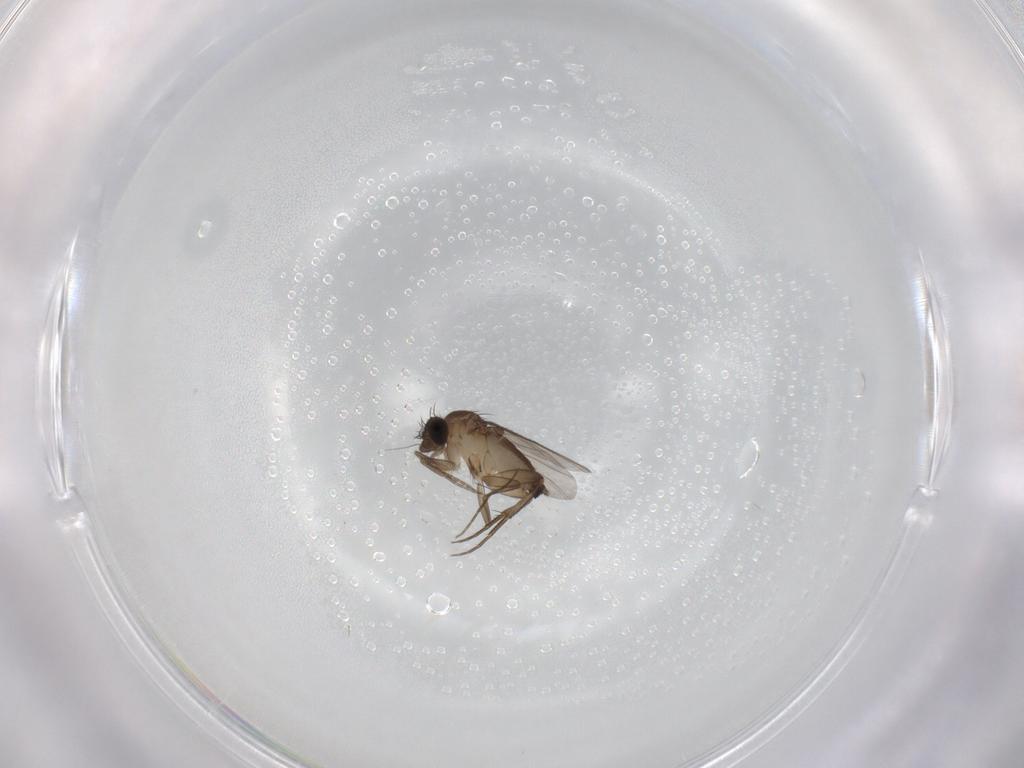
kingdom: Animalia
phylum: Arthropoda
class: Insecta
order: Diptera
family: Phoridae
